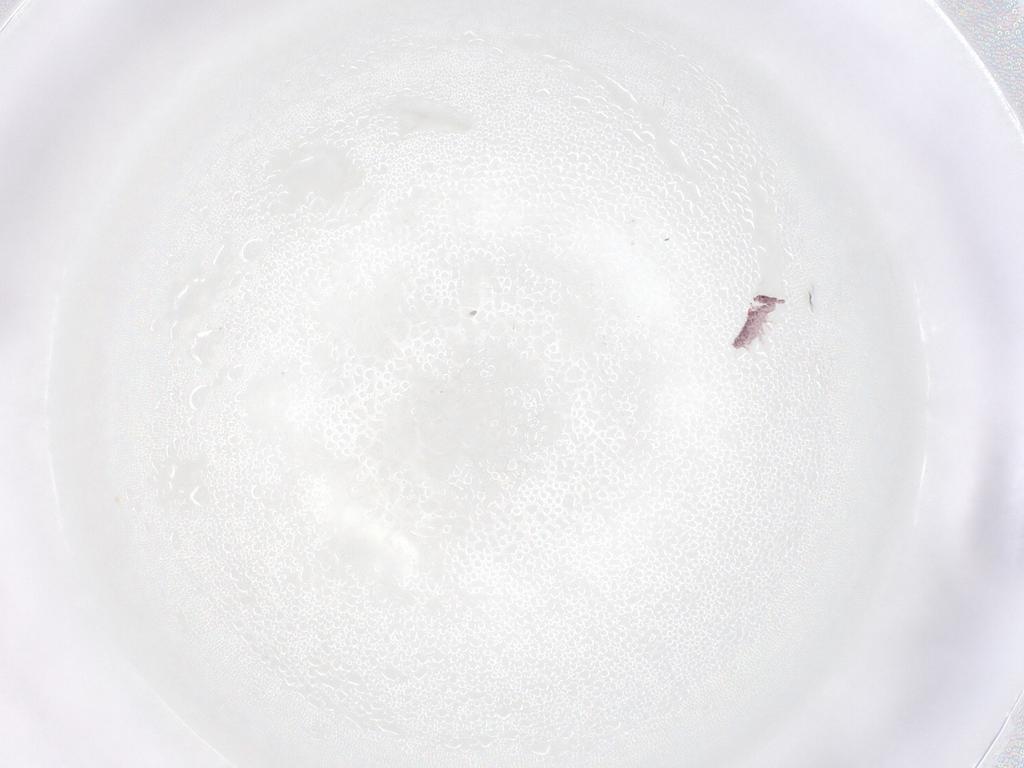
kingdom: Animalia
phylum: Arthropoda
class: Collembola
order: Poduromorpha
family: Hypogastruridae
